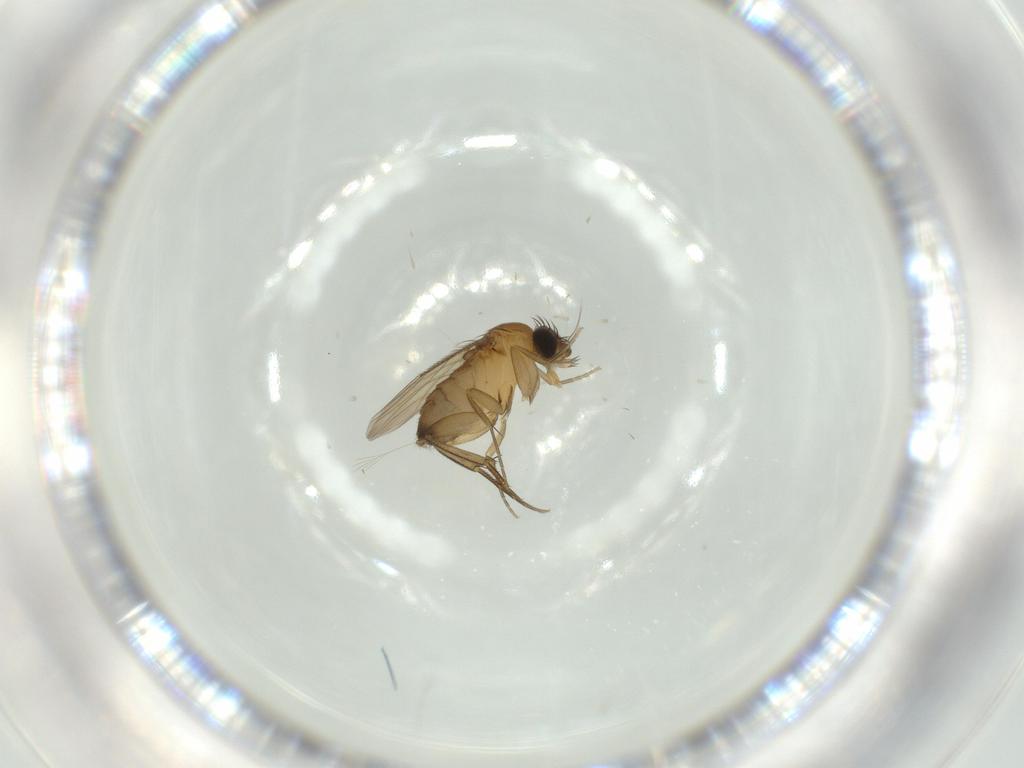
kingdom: Animalia
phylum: Arthropoda
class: Insecta
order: Diptera
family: Phoridae
